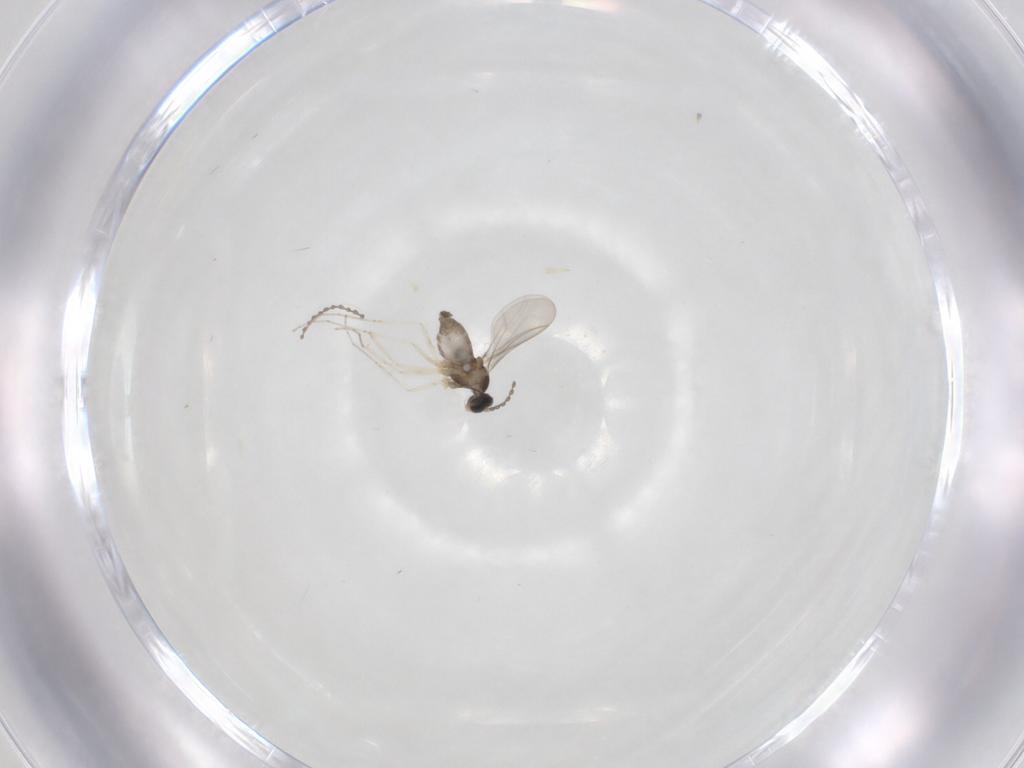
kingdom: Animalia
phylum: Arthropoda
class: Insecta
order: Diptera
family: Cecidomyiidae
